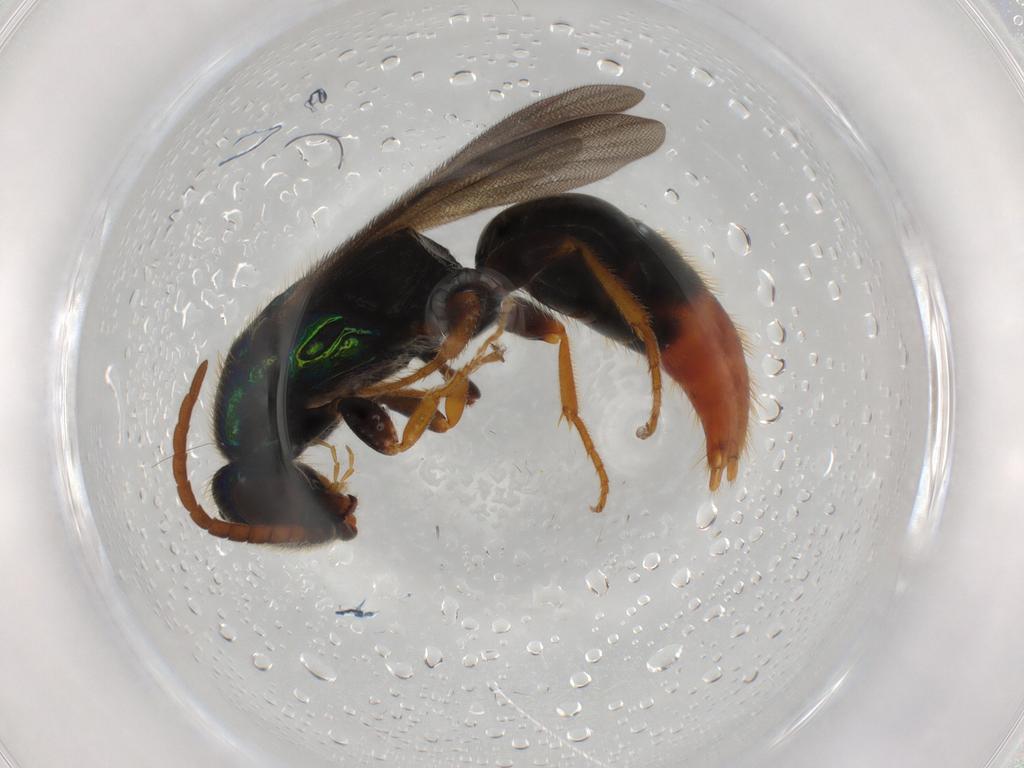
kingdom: Animalia
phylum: Arthropoda
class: Insecta
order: Hymenoptera
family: Bethylidae
